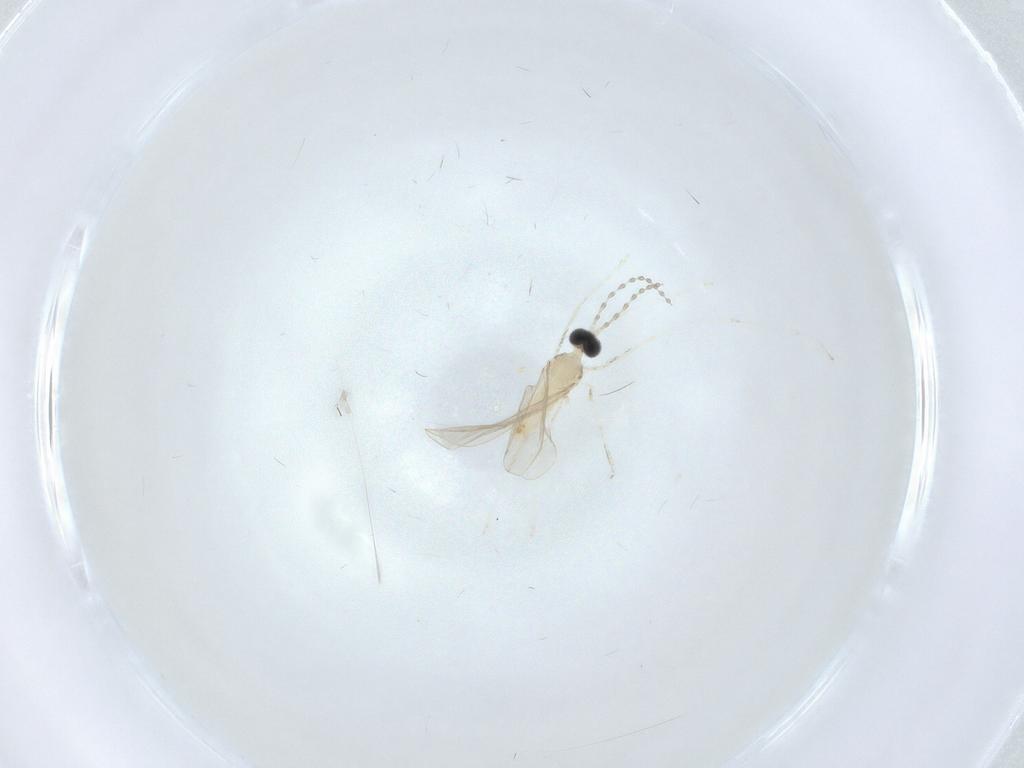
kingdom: Animalia
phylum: Arthropoda
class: Insecta
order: Diptera
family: Cecidomyiidae
